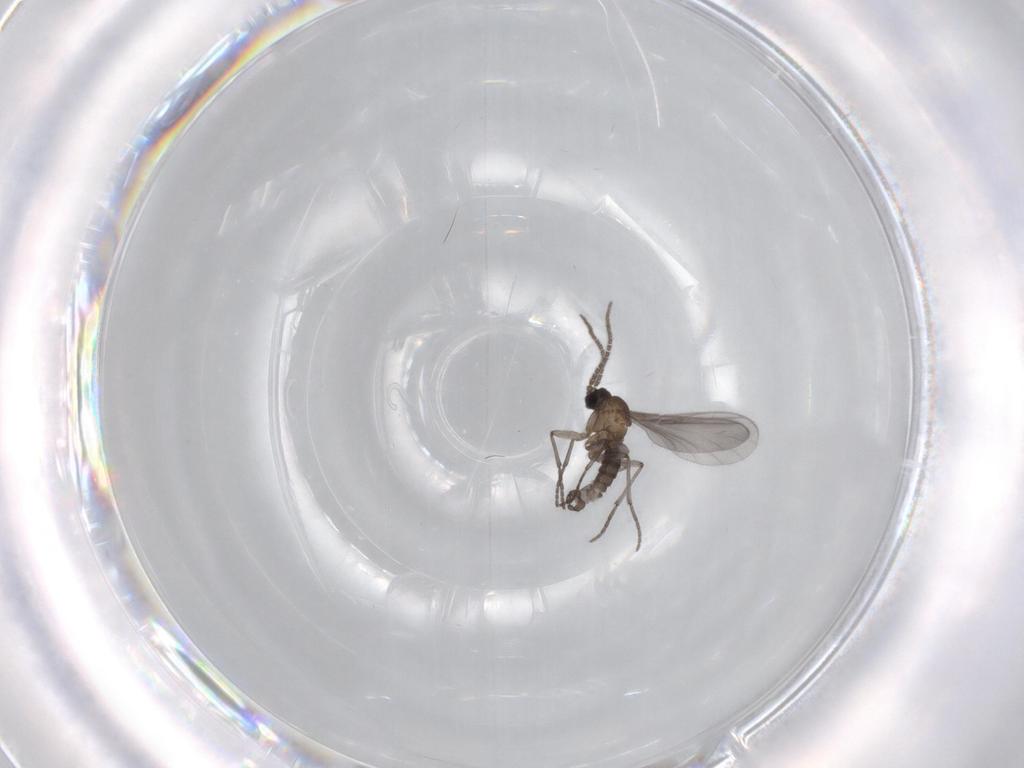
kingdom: Animalia
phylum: Arthropoda
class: Insecta
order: Diptera
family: Sciaridae
